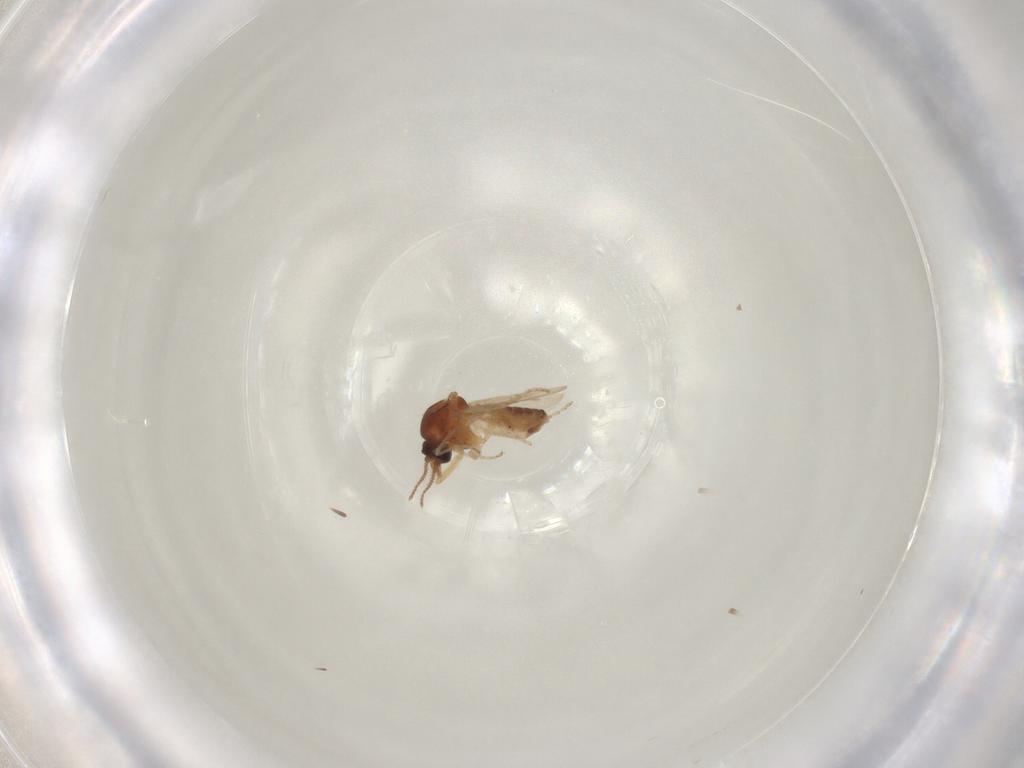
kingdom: Animalia
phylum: Arthropoda
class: Insecta
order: Diptera
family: Ceratopogonidae
